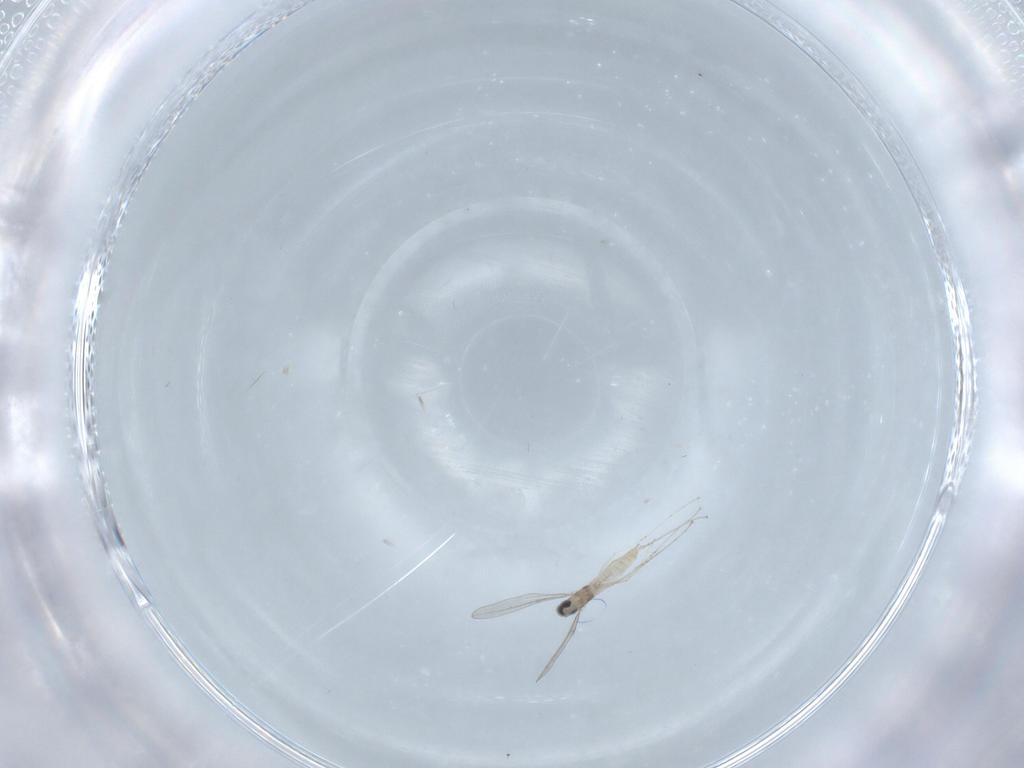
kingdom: Animalia
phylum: Arthropoda
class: Insecta
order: Diptera
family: Cecidomyiidae
